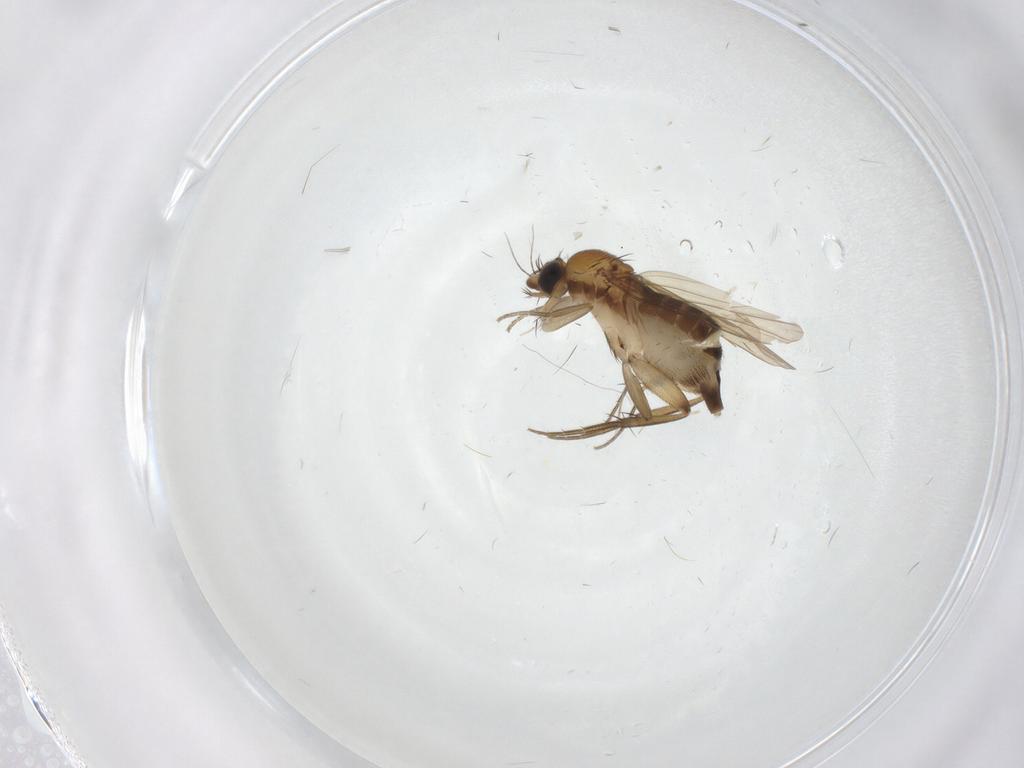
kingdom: Animalia
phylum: Arthropoda
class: Insecta
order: Diptera
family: Phoridae
